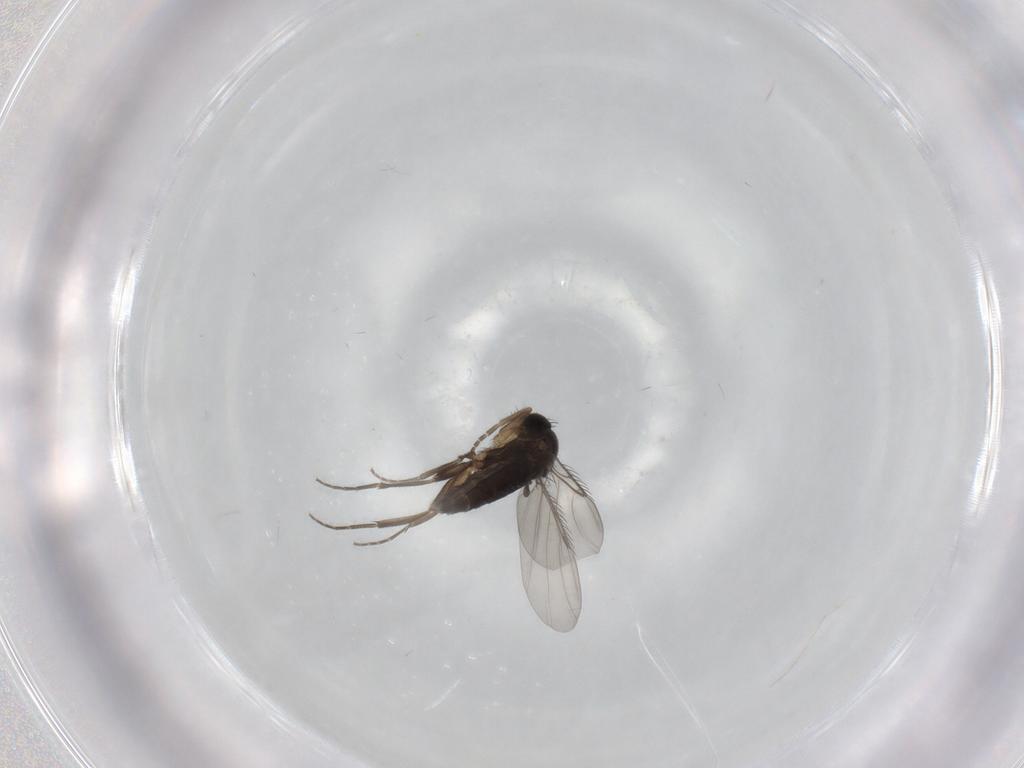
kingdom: Animalia
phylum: Arthropoda
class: Insecta
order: Diptera
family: Phoridae
